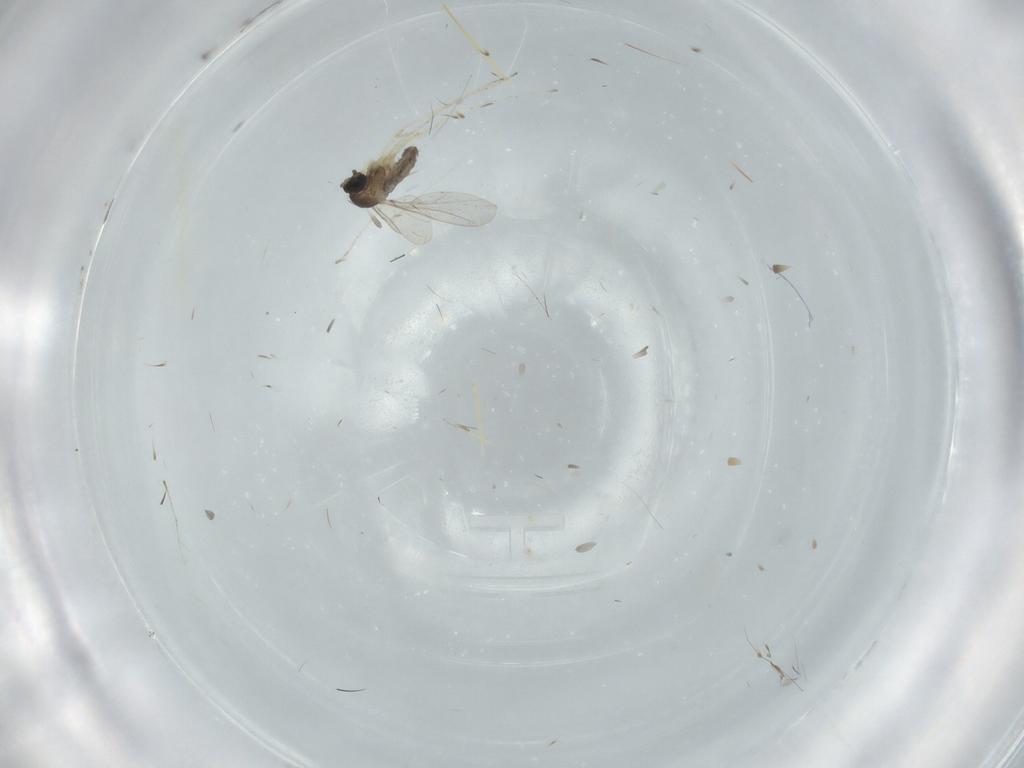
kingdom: Animalia
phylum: Arthropoda
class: Insecta
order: Diptera
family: Cecidomyiidae
